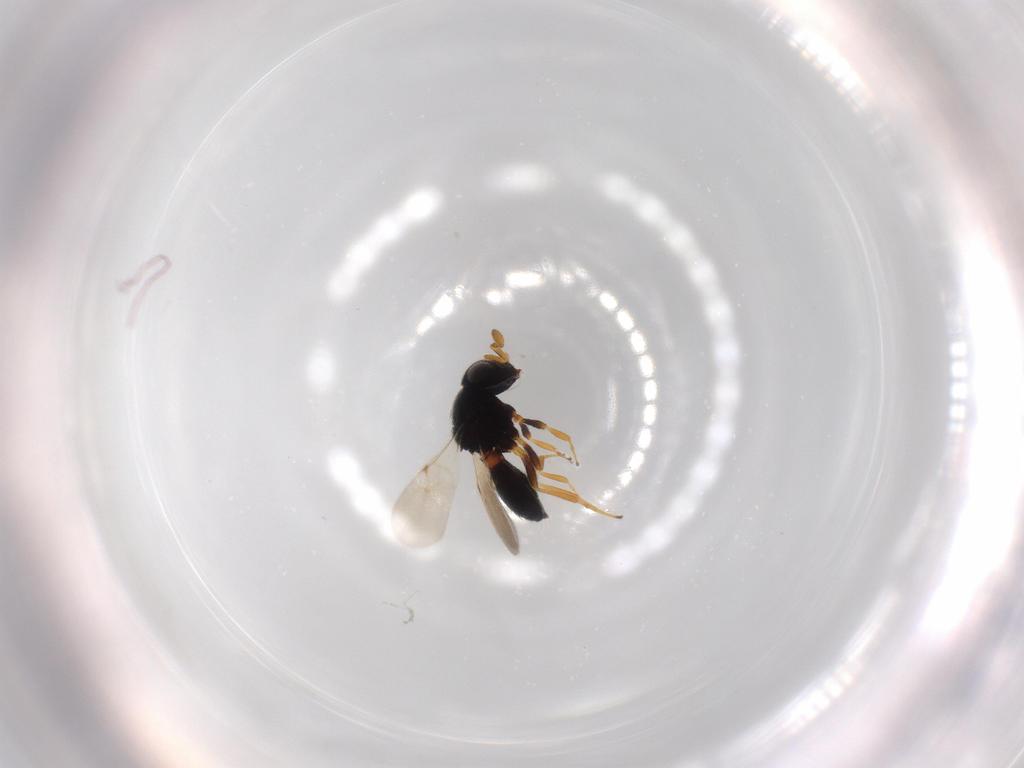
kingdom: Animalia
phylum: Arthropoda
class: Insecta
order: Hymenoptera
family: Scelionidae
